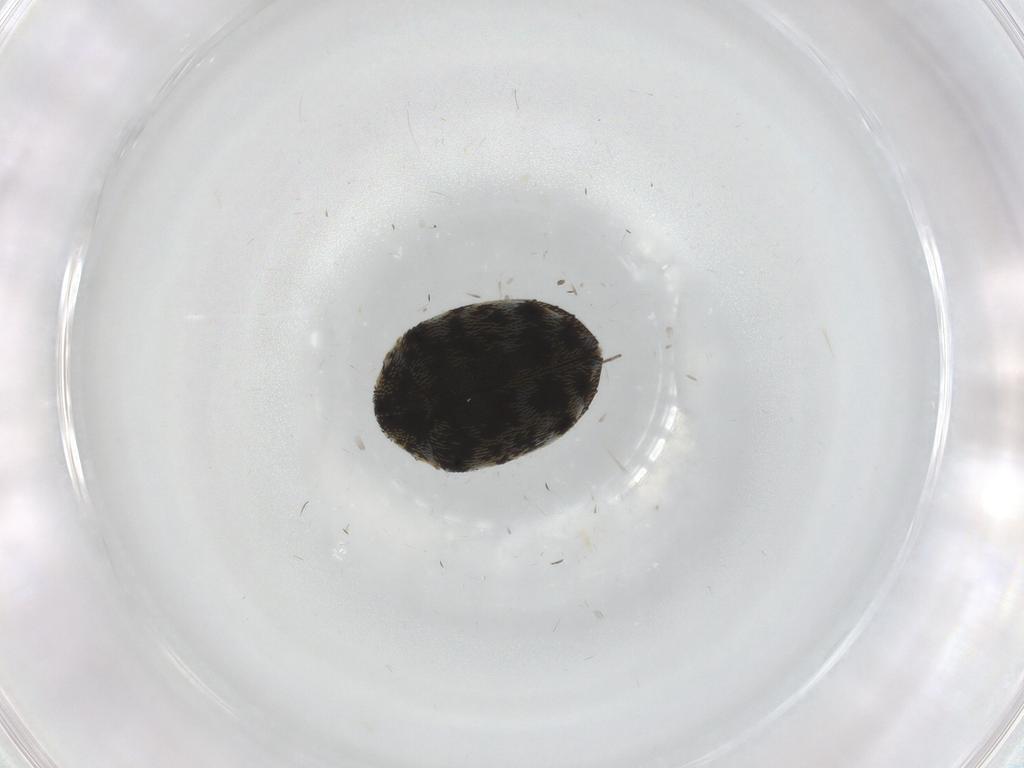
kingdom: Animalia
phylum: Arthropoda
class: Insecta
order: Coleoptera
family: Dermestidae
